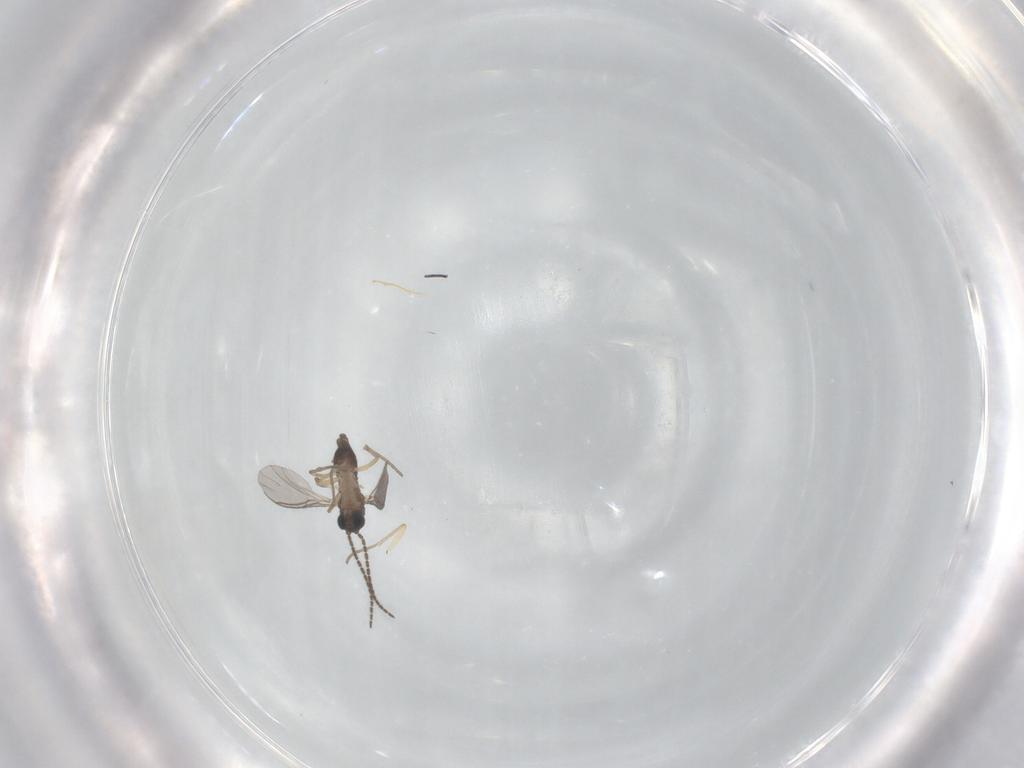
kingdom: Animalia
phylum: Arthropoda
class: Insecta
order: Diptera
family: Sciaridae
